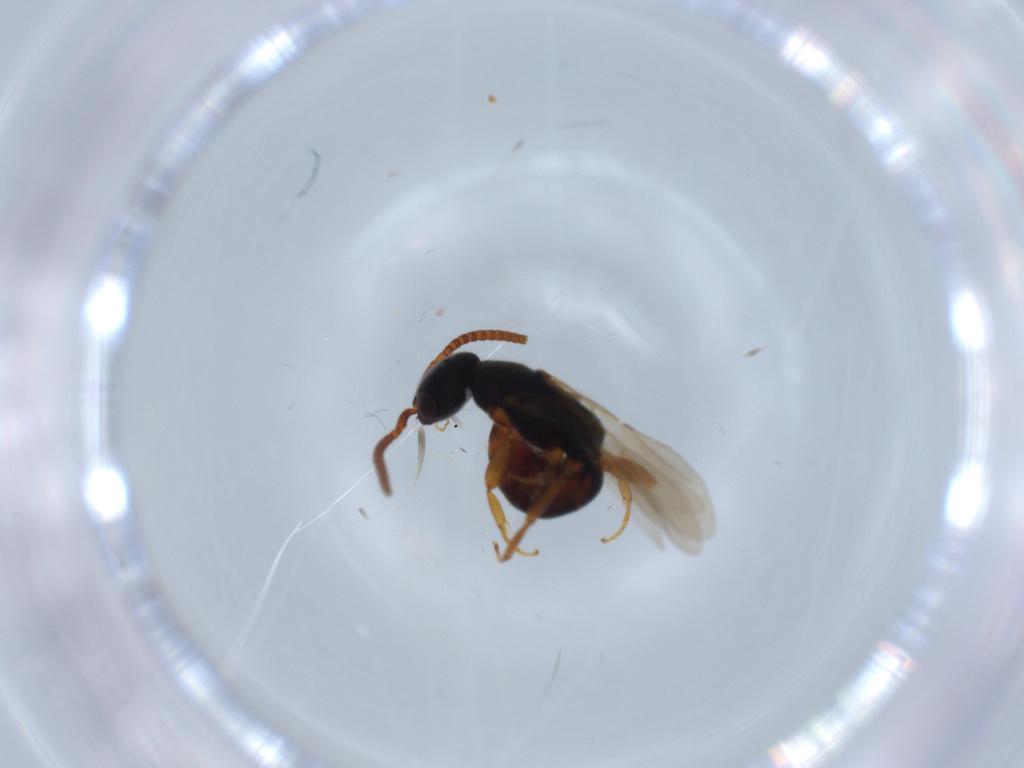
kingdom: Animalia
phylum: Arthropoda
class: Insecta
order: Hymenoptera
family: Bethylidae
